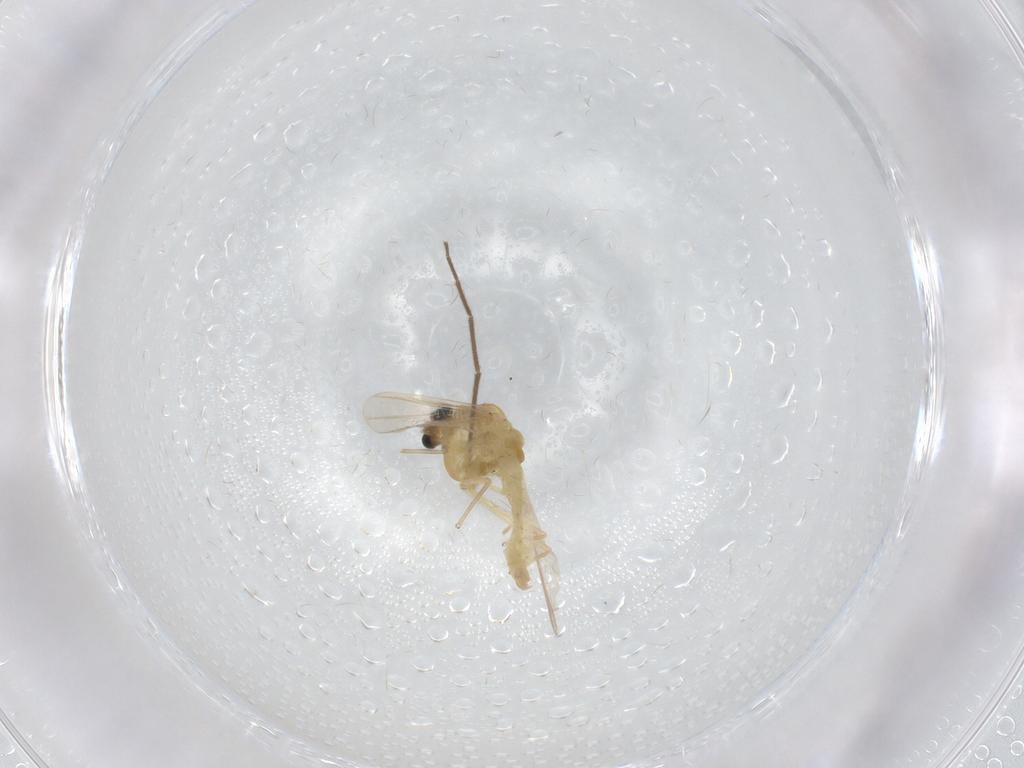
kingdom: Animalia
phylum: Arthropoda
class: Insecta
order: Diptera
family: Chironomidae
